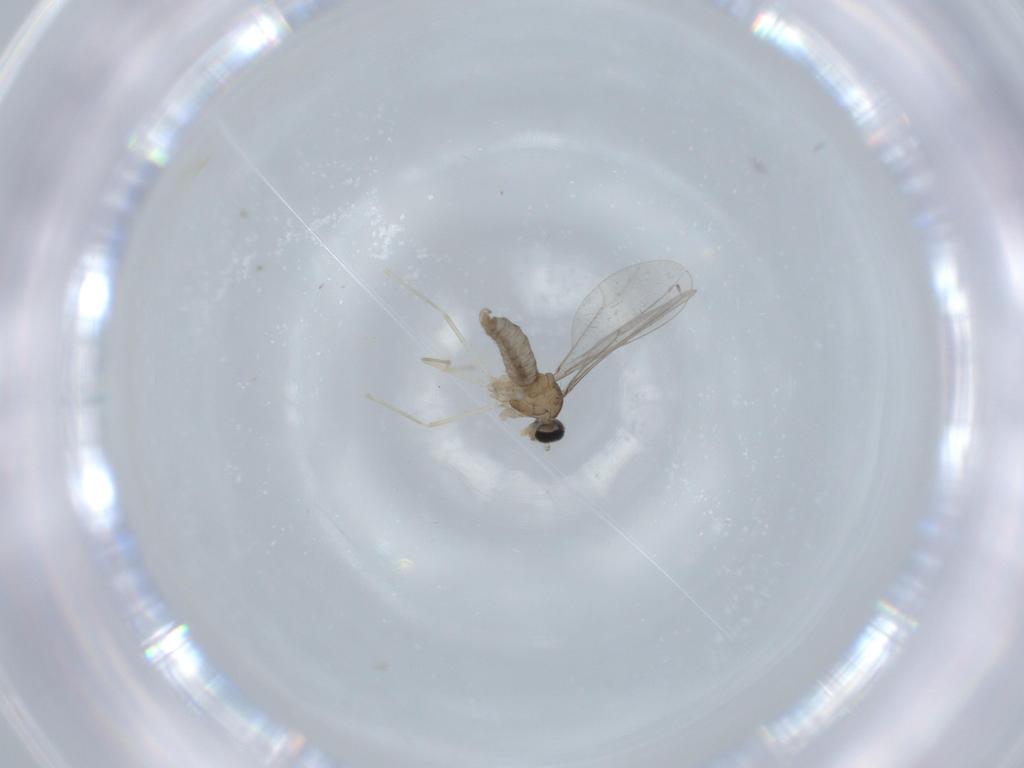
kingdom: Animalia
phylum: Arthropoda
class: Insecta
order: Diptera
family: Cecidomyiidae
